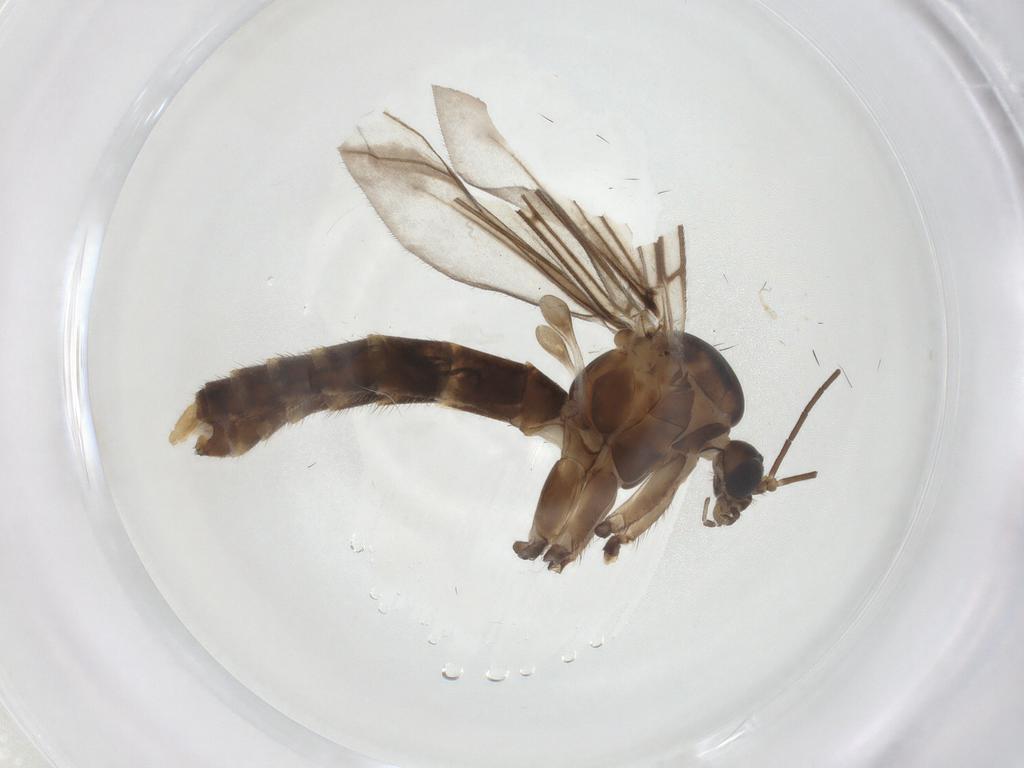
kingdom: Animalia
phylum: Arthropoda
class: Insecta
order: Diptera
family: Mycetophilidae
